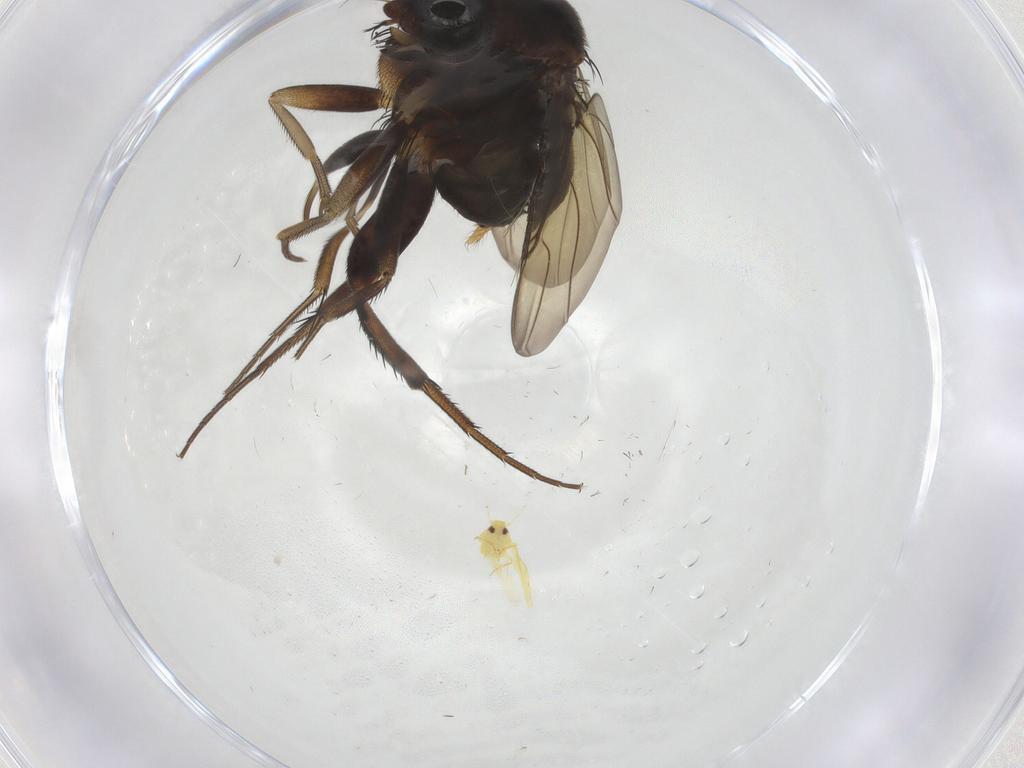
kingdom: Animalia
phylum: Arthropoda
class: Insecta
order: Diptera
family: Phoridae
